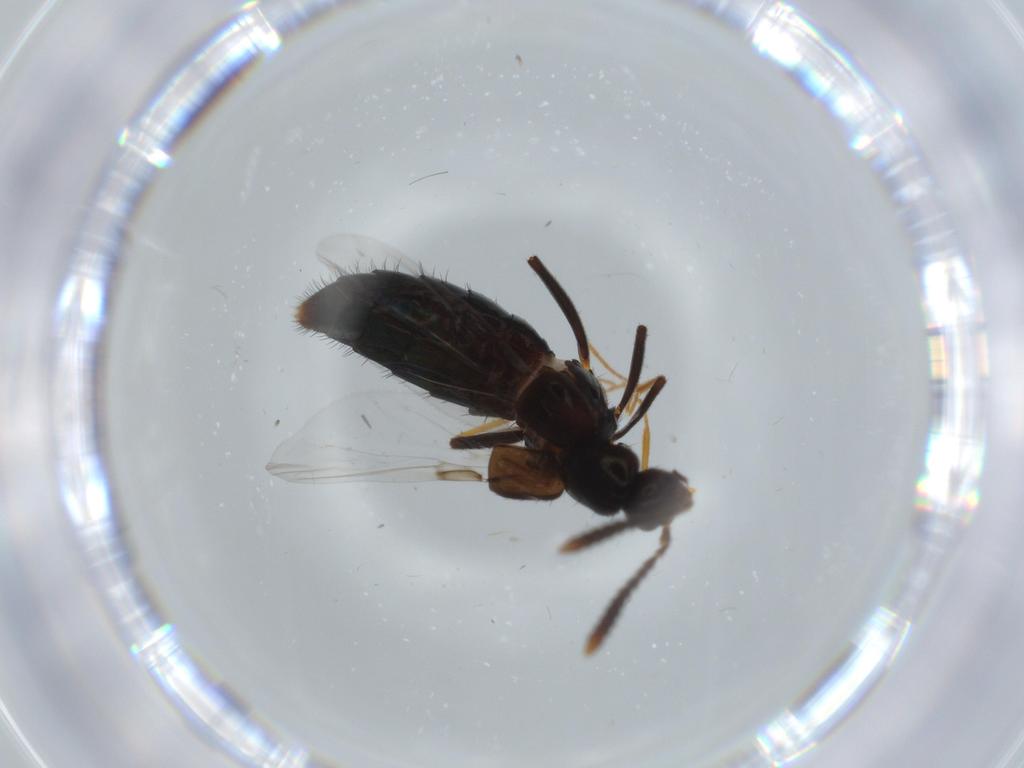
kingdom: Animalia
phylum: Arthropoda
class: Insecta
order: Coleoptera
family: Staphylinidae
